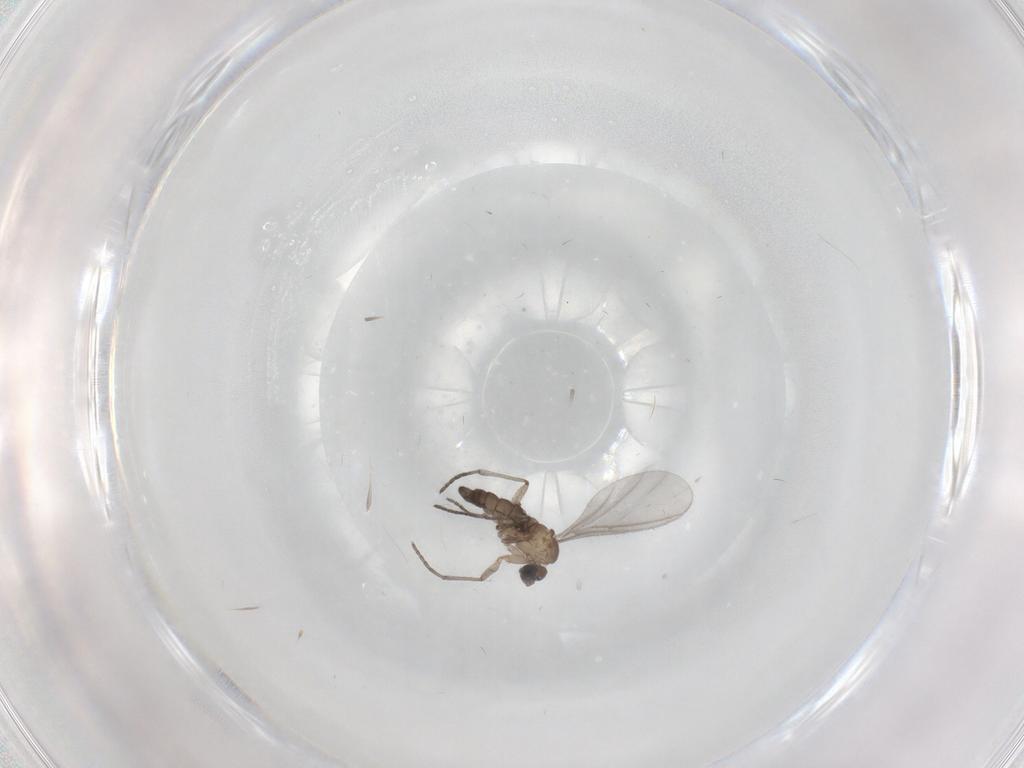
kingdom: Animalia
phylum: Arthropoda
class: Insecta
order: Diptera
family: Sciaridae
